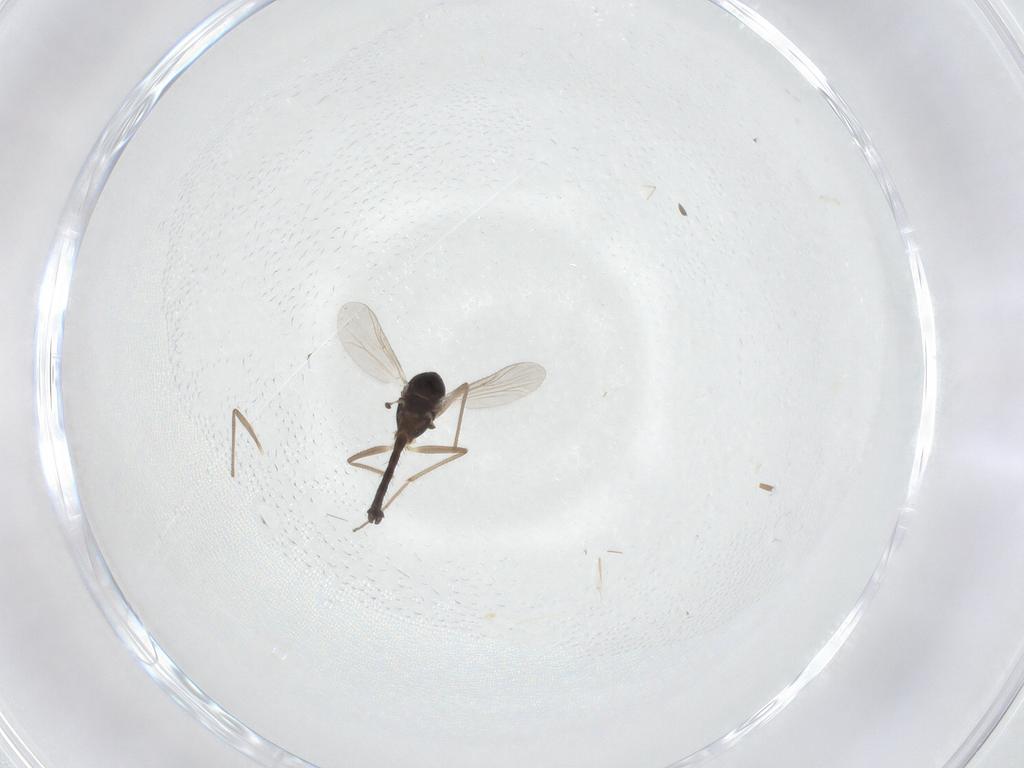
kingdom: Animalia
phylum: Arthropoda
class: Insecta
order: Diptera
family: Chironomidae
